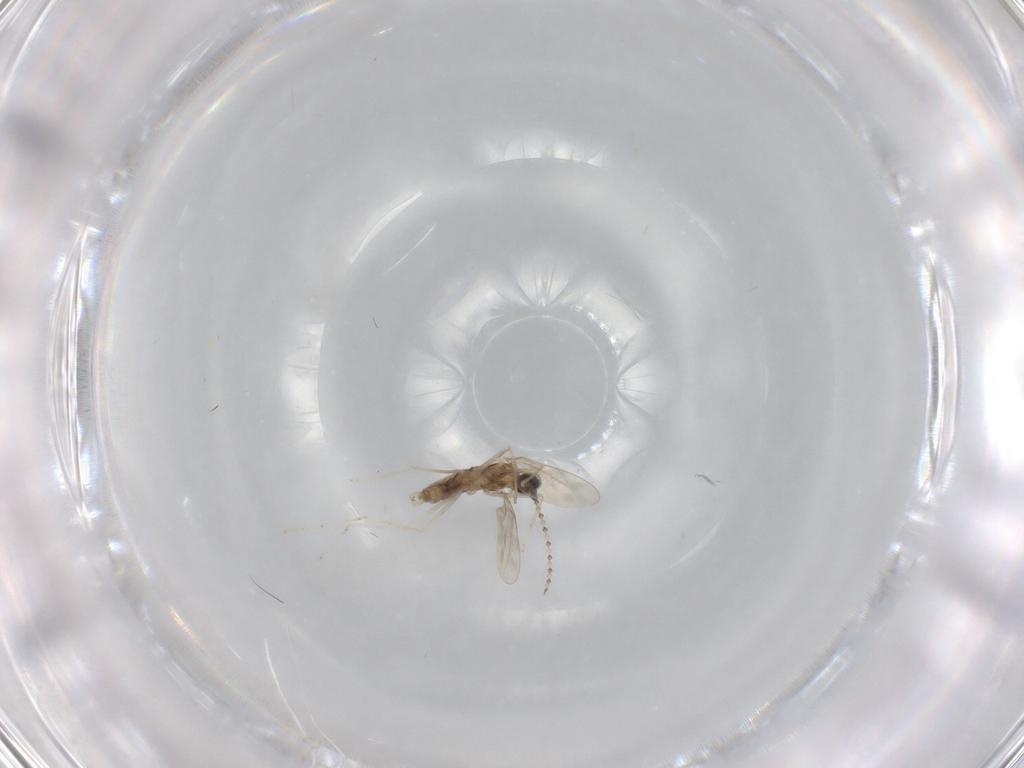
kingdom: Animalia
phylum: Arthropoda
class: Insecta
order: Diptera
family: Cecidomyiidae
